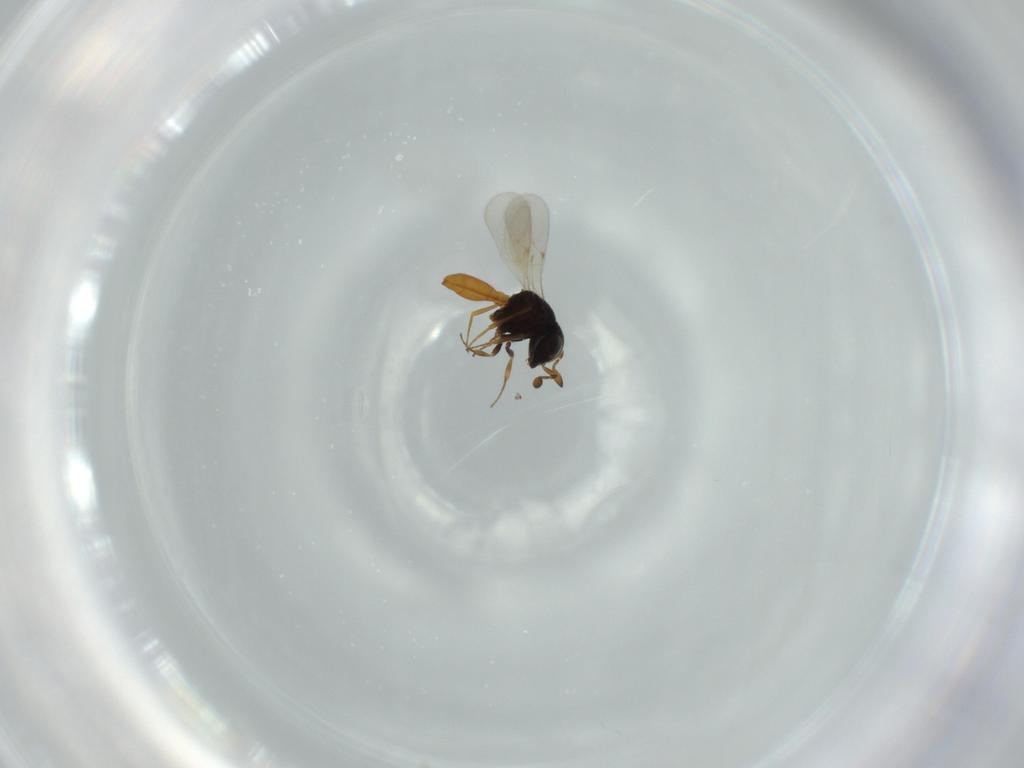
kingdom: Animalia
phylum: Arthropoda
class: Insecta
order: Hymenoptera
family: Scelionidae
